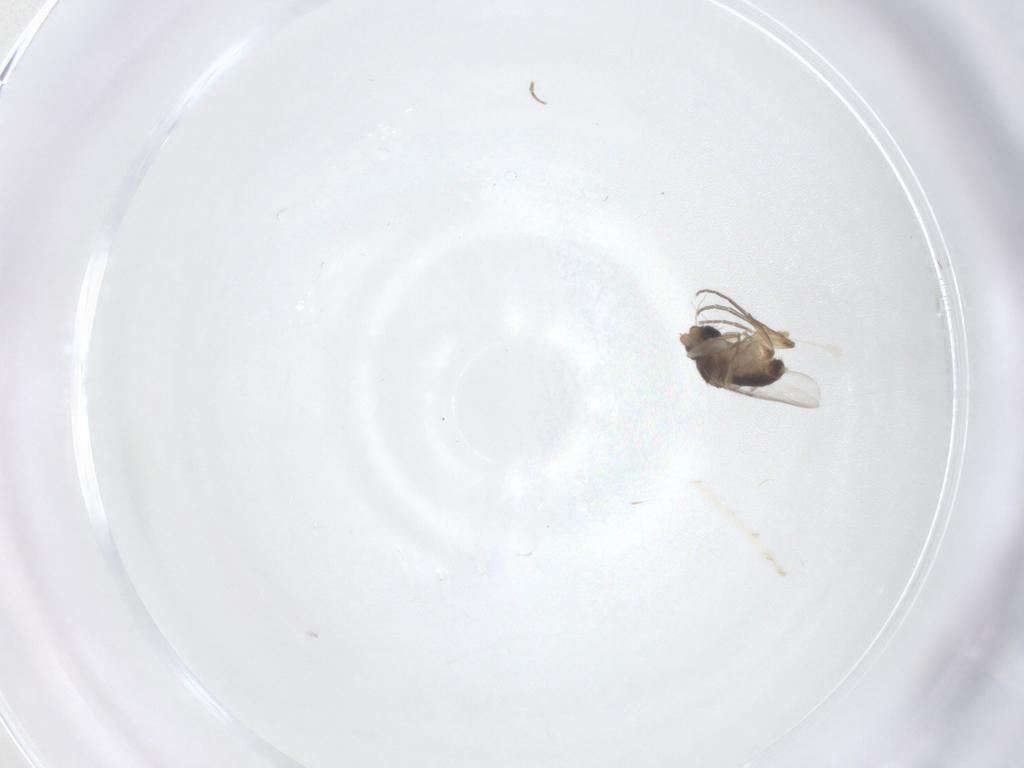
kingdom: Animalia
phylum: Arthropoda
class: Insecta
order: Diptera
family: Phoridae
